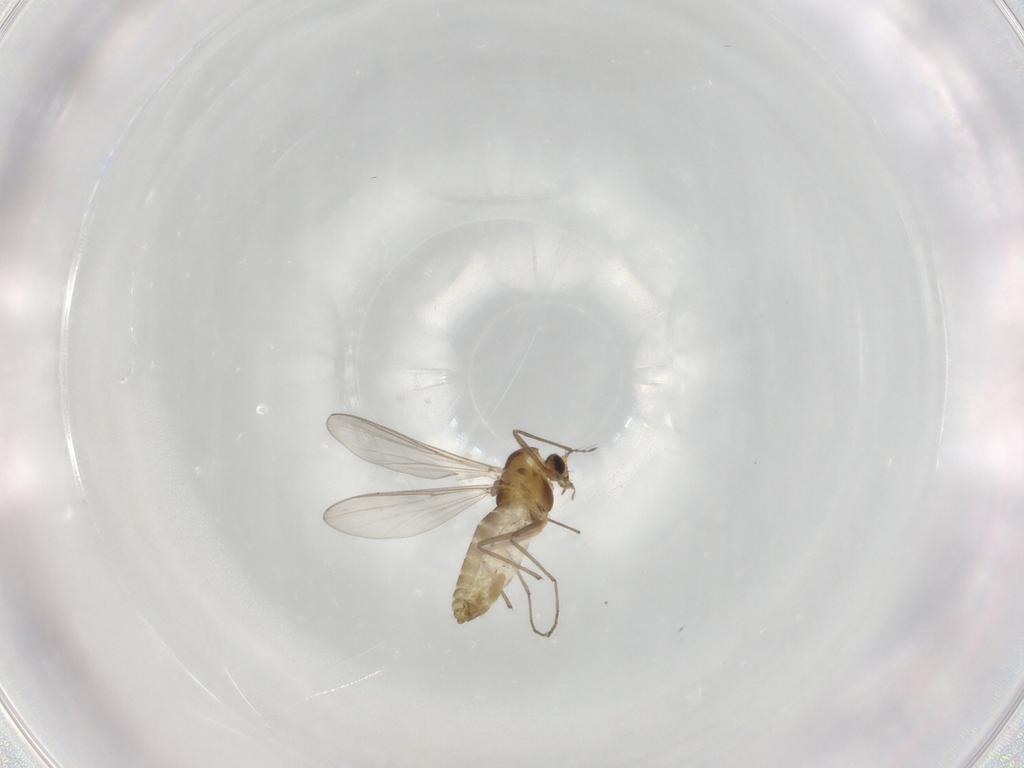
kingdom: Animalia
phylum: Arthropoda
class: Insecta
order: Diptera
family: Chironomidae
